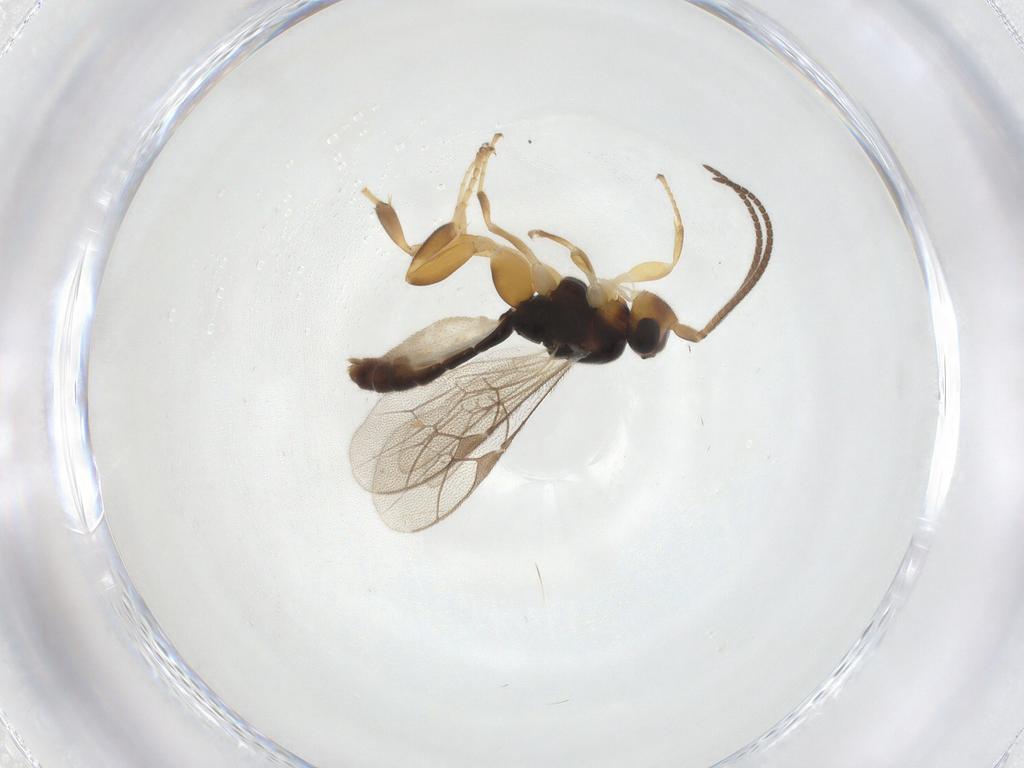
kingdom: Animalia
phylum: Arthropoda
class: Insecta
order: Hymenoptera
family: Ichneumonidae
